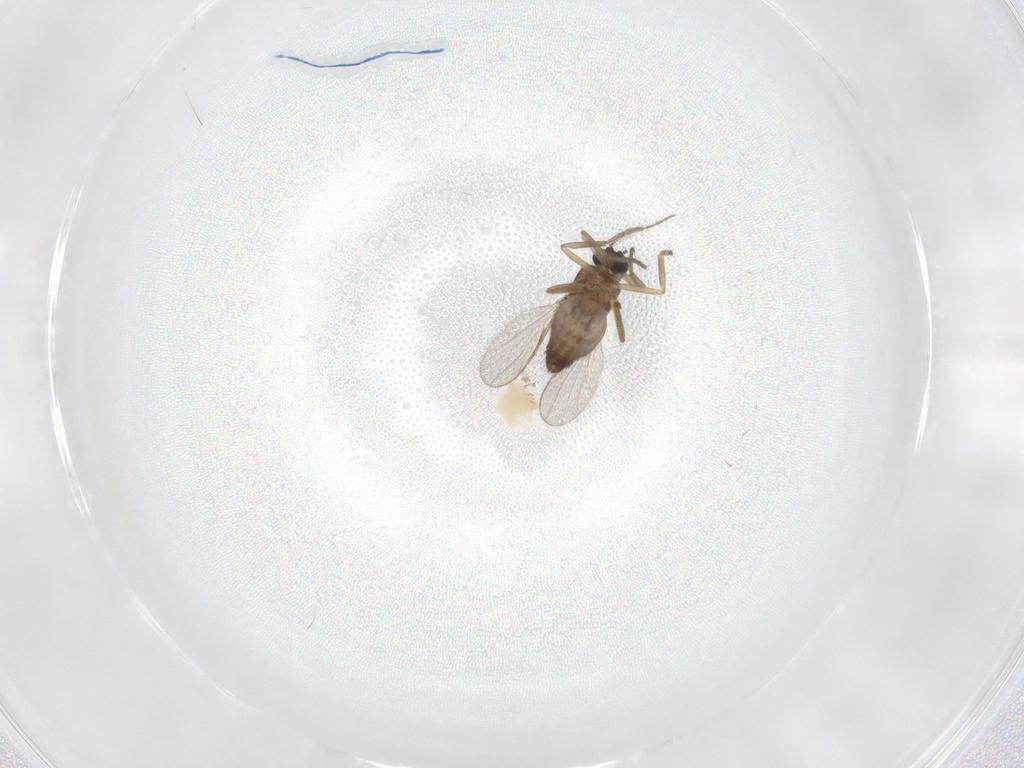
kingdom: Animalia
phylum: Arthropoda
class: Insecta
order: Diptera
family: Ceratopogonidae
